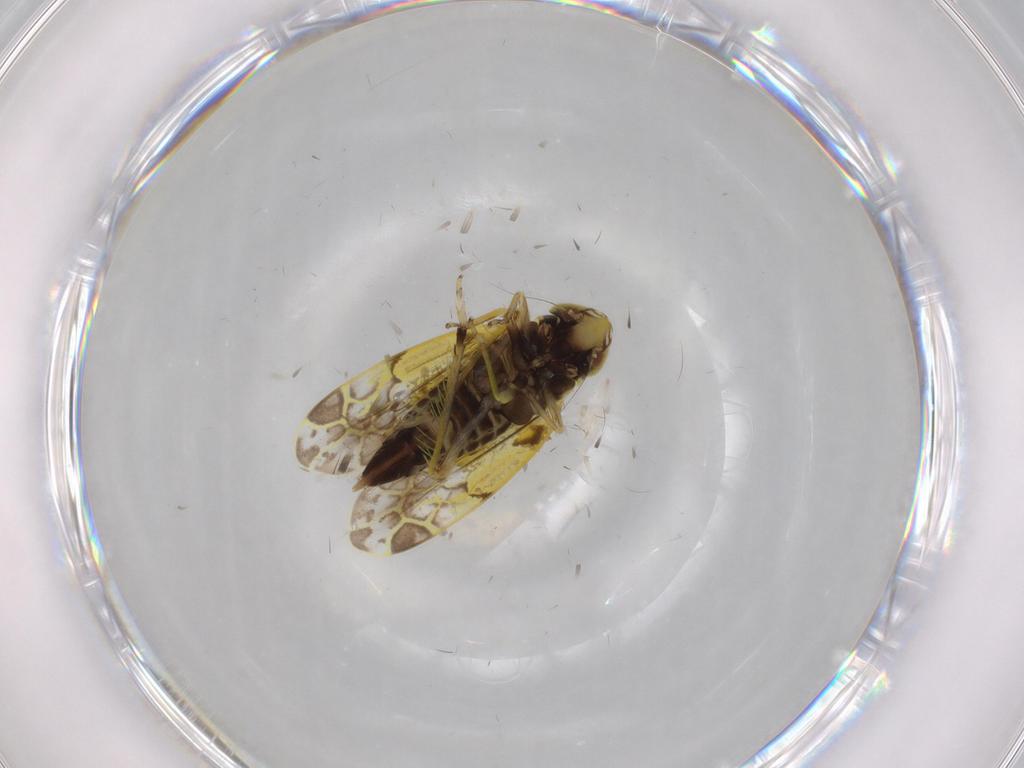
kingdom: Animalia
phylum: Arthropoda
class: Insecta
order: Hemiptera
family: Cicadellidae
